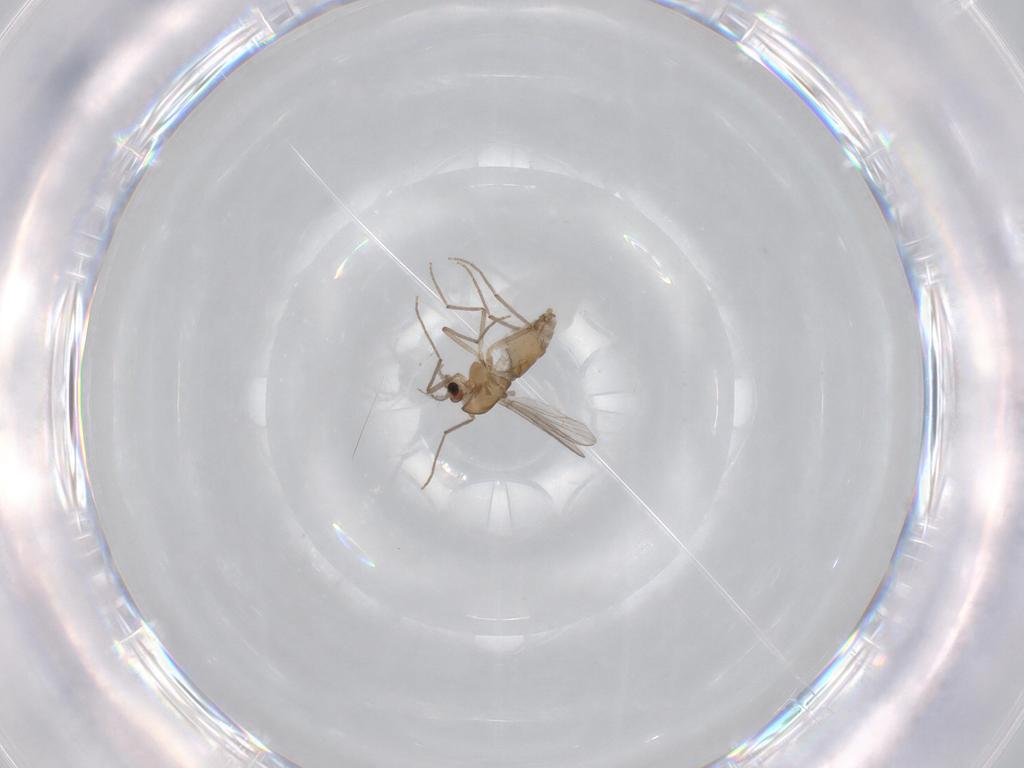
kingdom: Animalia
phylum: Arthropoda
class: Insecta
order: Diptera
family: Chironomidae
